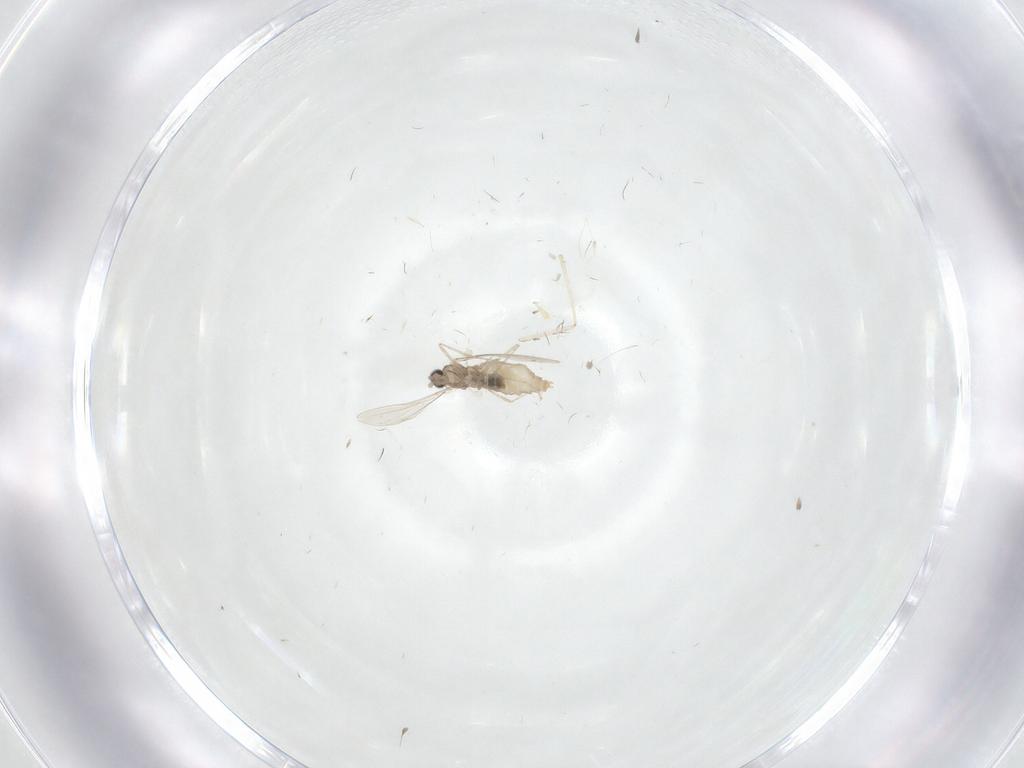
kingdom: Animalia
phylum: Arthropoda
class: Insecta
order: Diptera
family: Cecidomyiidae
